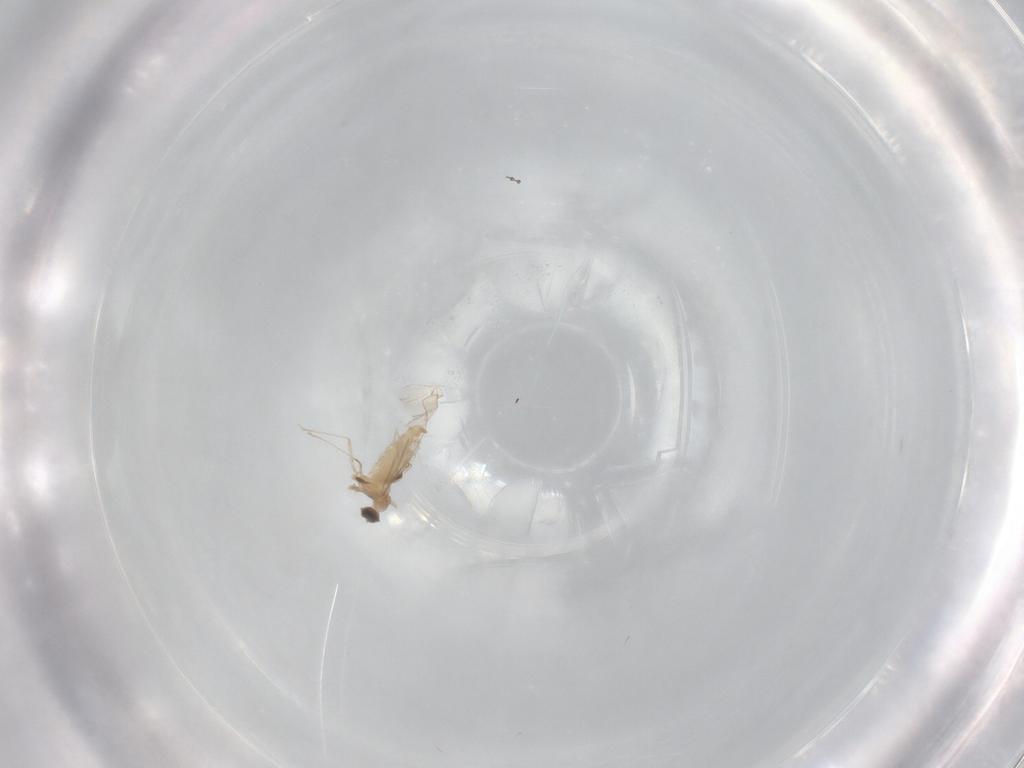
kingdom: Animalia
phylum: Arthropoda
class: Insecta
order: Diptera
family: Cecidomyiidae
